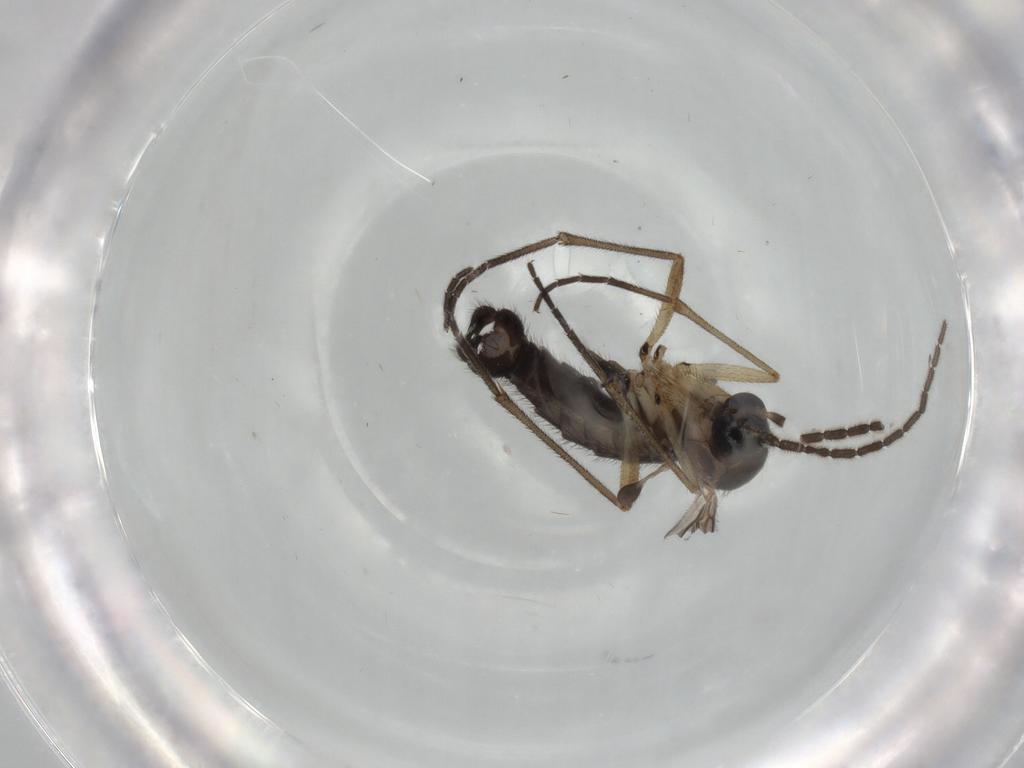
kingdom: Animalia
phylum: Arthropoda
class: Insecta
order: Diptera
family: Sciaridae
